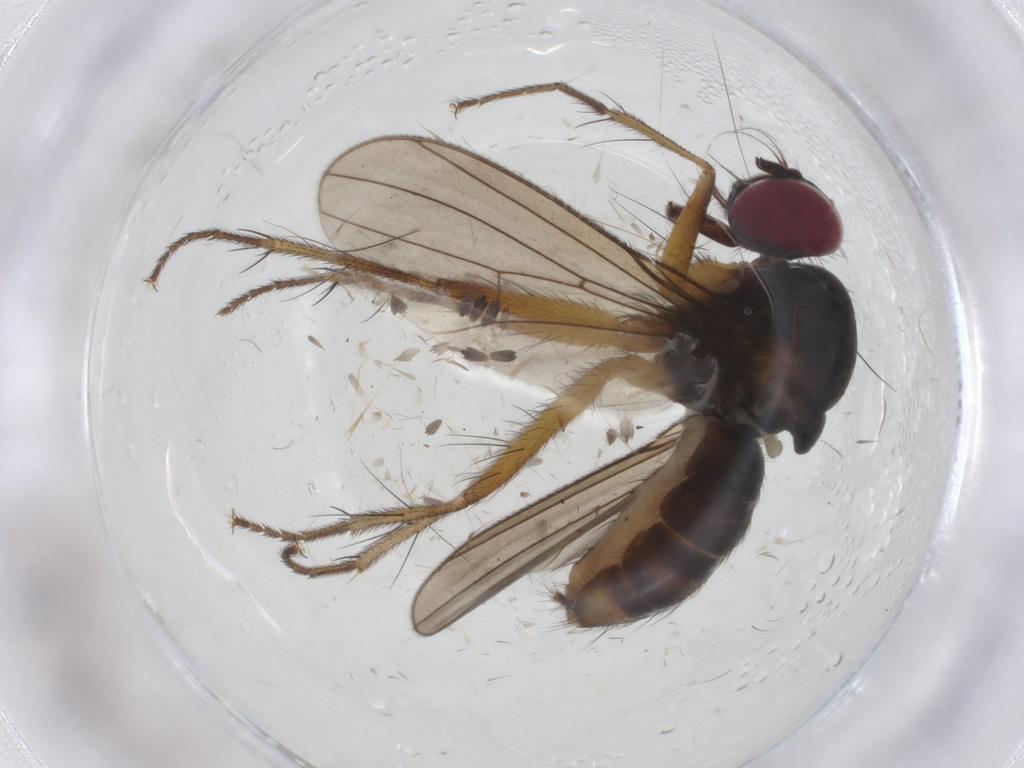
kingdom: Animalia
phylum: Arthropoda
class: Insecta
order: Diptera
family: Anthomyiidae
